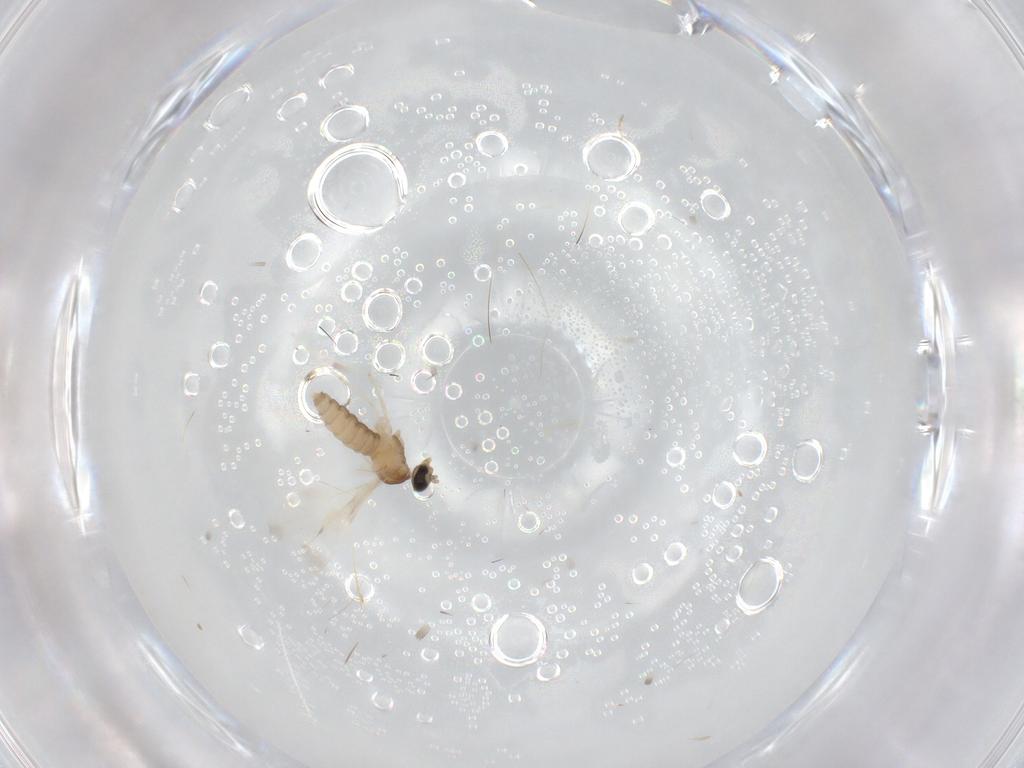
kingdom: Animalia
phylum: Arthropoda
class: Insecta
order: Diptera
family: Cecidomyiidae
